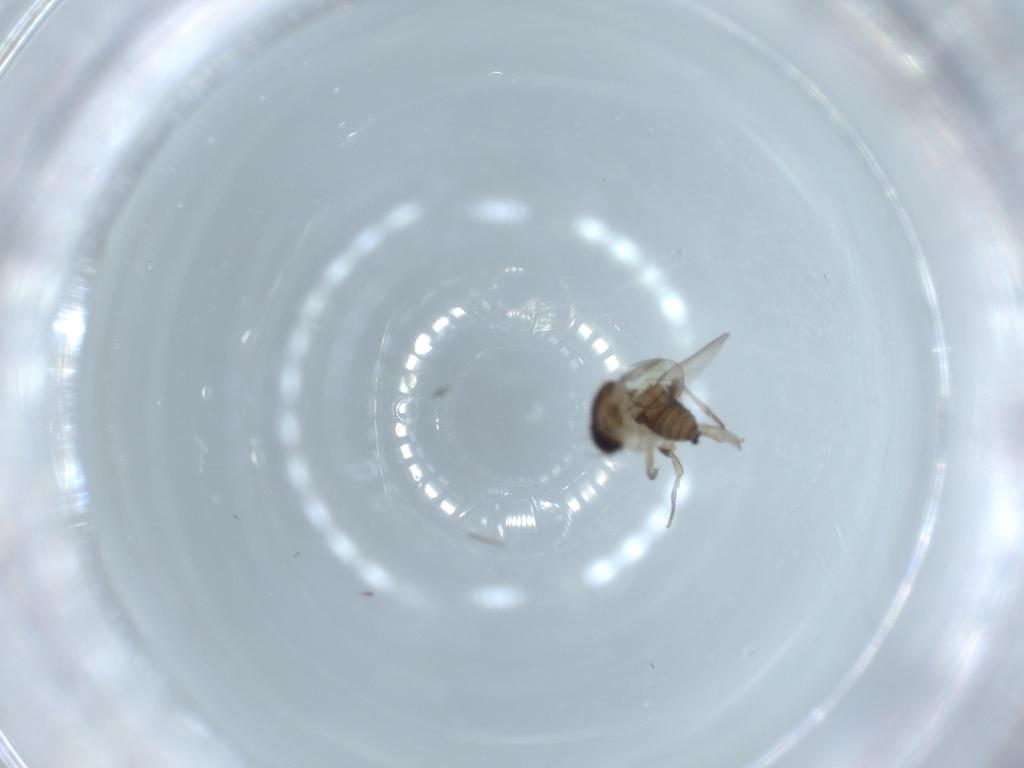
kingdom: Animalia
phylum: Arthropoda
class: Insecta
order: Diptera
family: Phoridae
